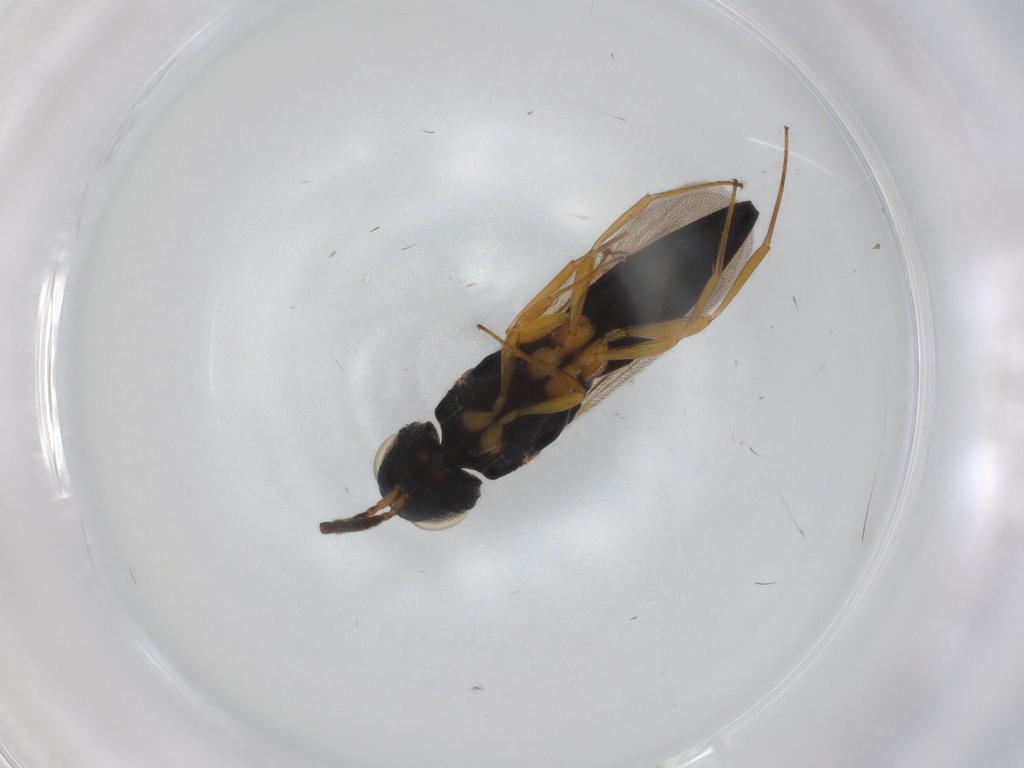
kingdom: Animalia
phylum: Arthropoda
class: Insecta
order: Hymenoptera
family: Scelionidae
